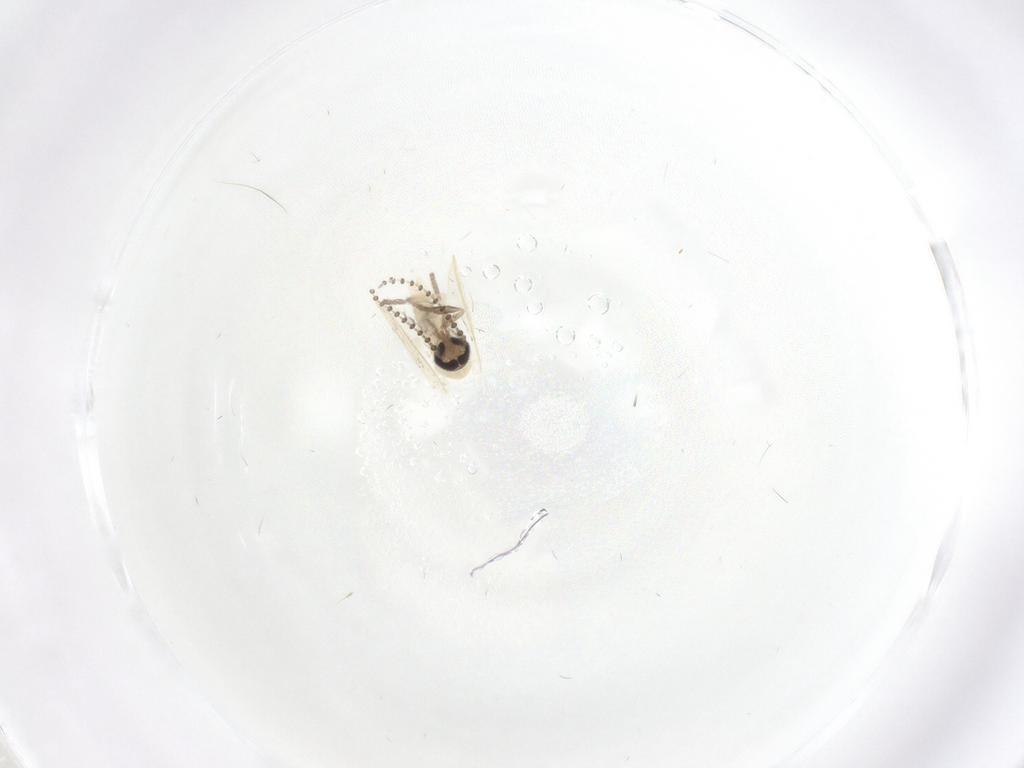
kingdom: Animalia
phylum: Arthropoda
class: Insecta
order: Diptera
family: Psychodidae
